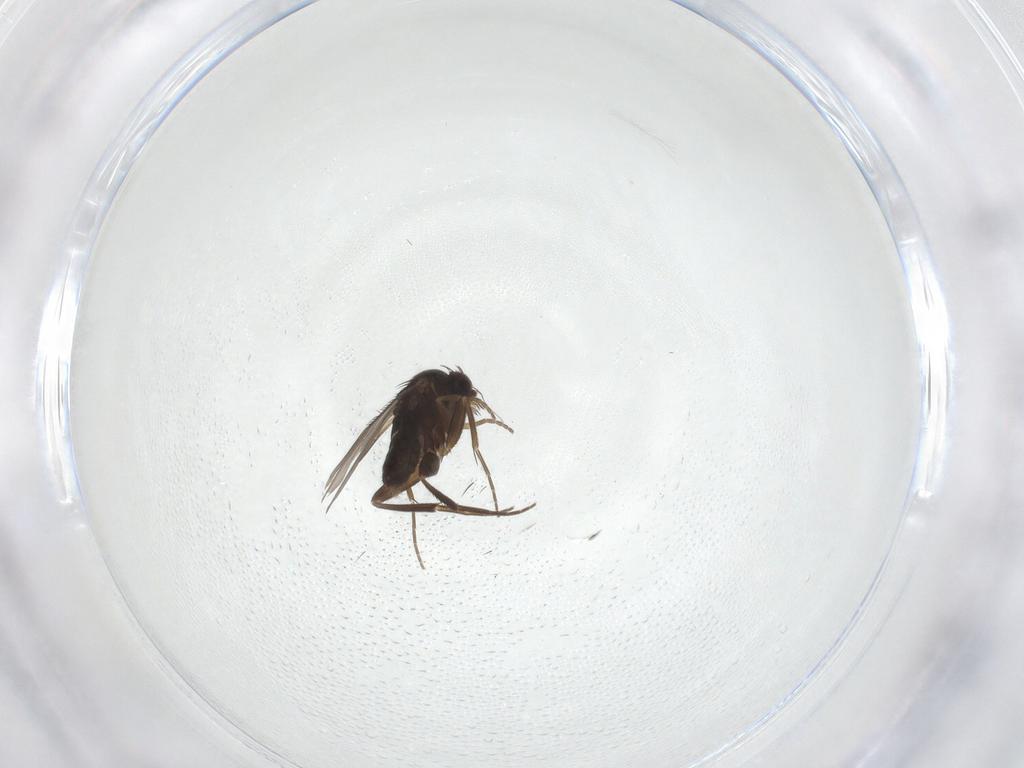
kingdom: Animalia
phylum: Arthropoda
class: Insecta
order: Diptera
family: Phoridae
